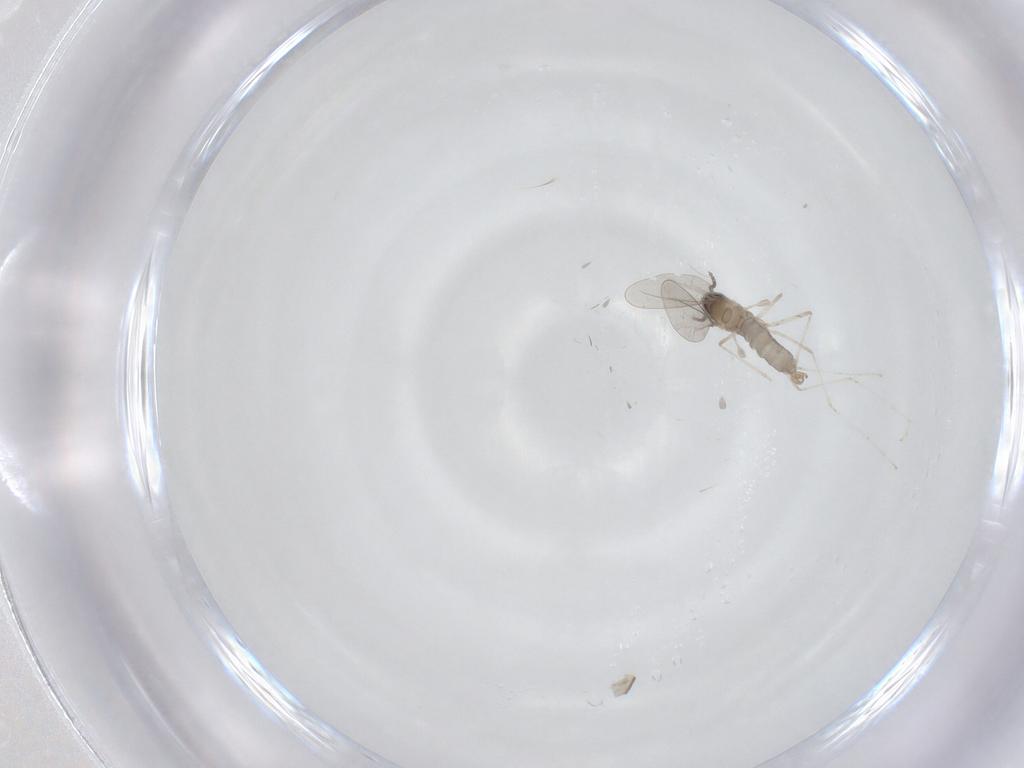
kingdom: Animalia
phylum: Arthropoda
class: Insecta
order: Diptera
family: Cecidomyiidae
